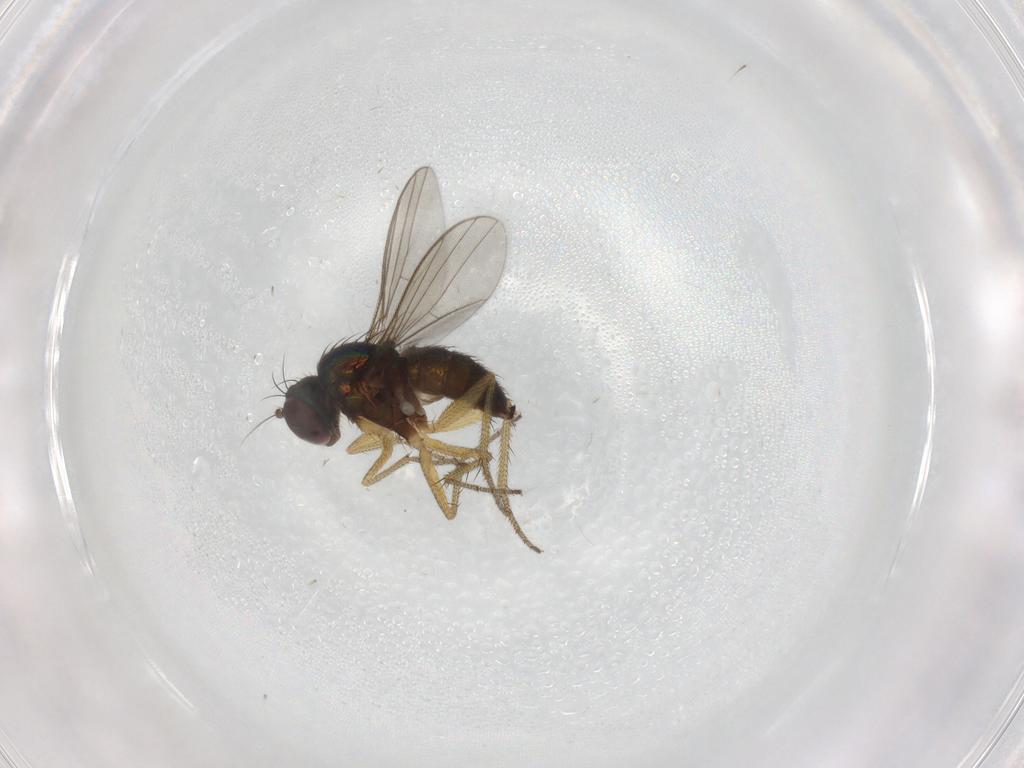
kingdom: Animalia
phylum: Arthropoda
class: Insecta
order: Diptera
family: Dolichopodidae
